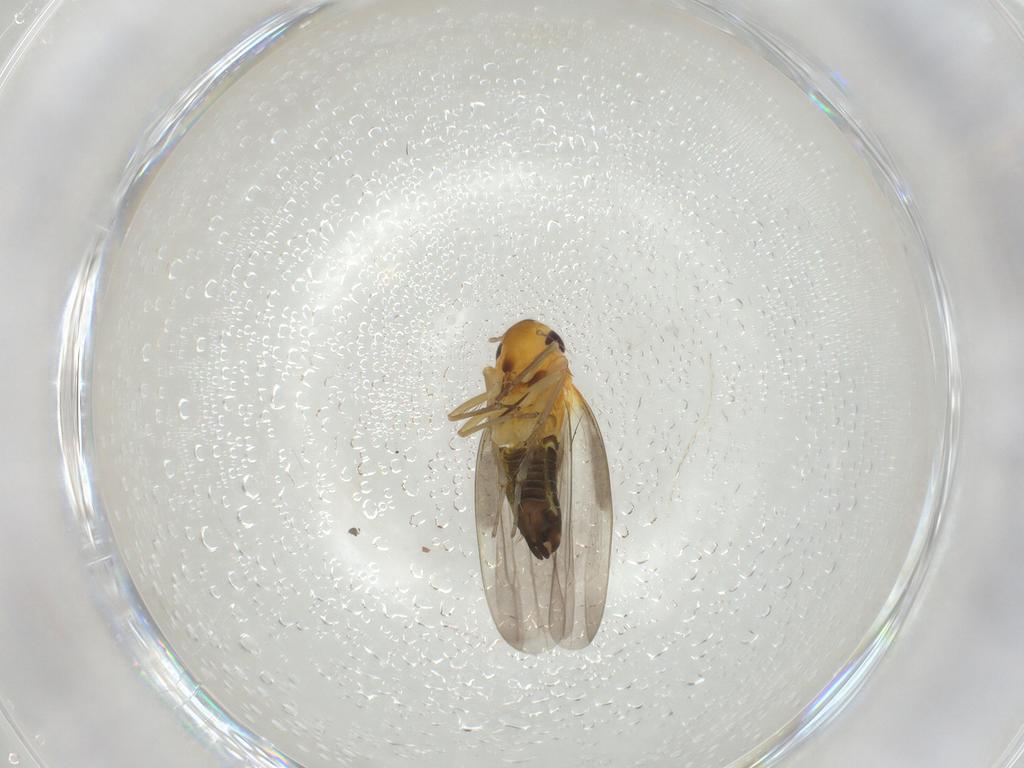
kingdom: Animalia
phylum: Arthropoda
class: Insecta
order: Hemiptera
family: Cicadellidae
